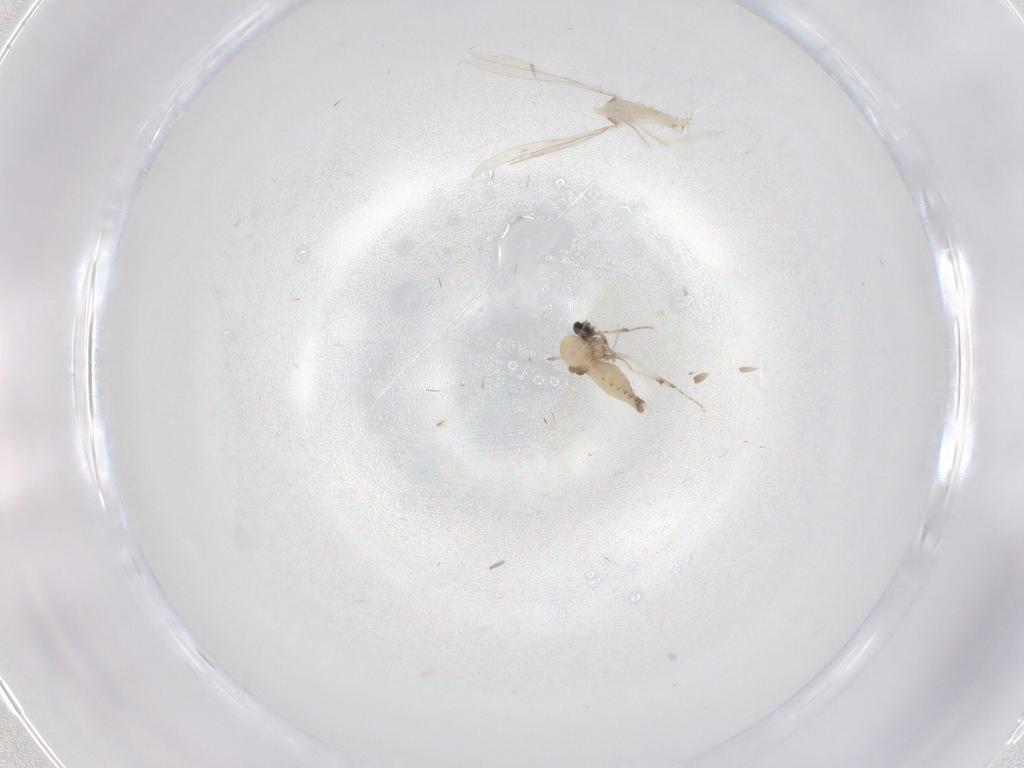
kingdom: Animalia
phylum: Arthropoda
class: Insecta
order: Diptera
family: Ceratopogonidae
